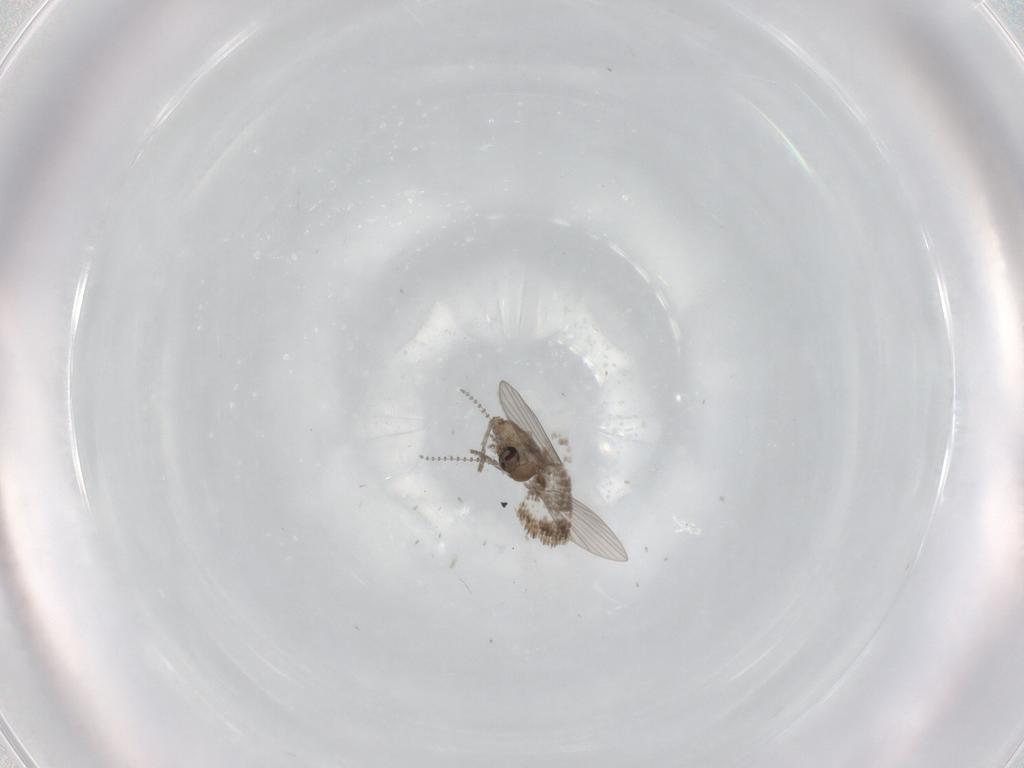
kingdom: Animalia
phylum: Arthropoda
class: Insecta
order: Diptera
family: Psychodidae
